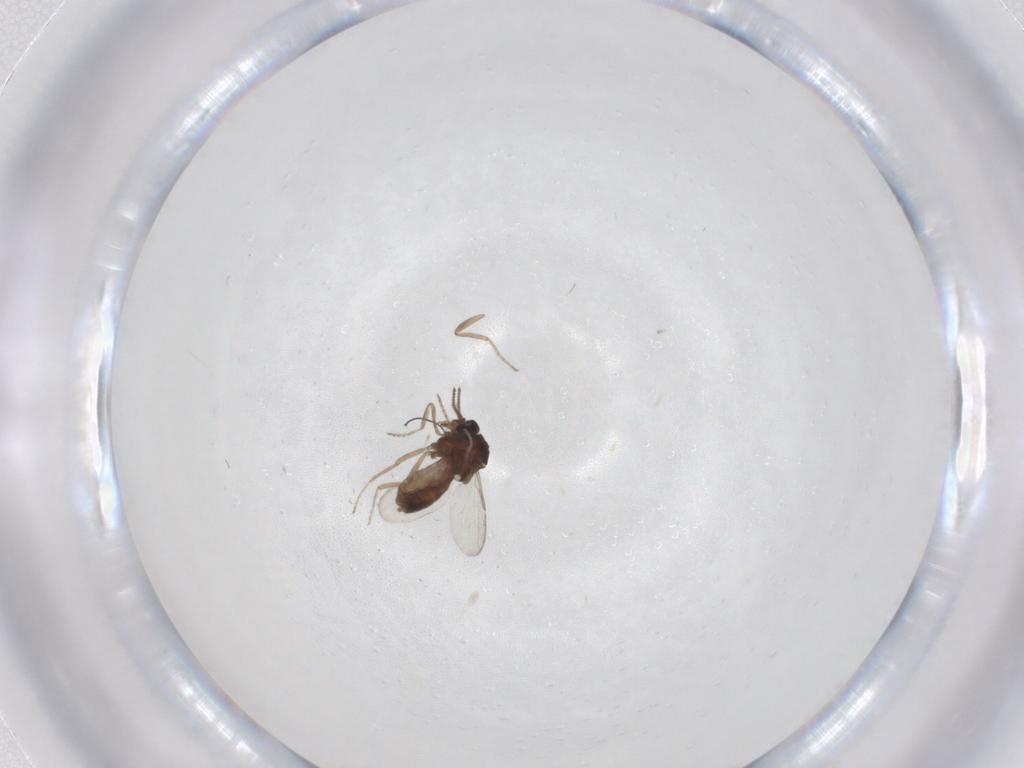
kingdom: Animalia
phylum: Arthropoda
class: Insecta
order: Diptera
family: Ceratopogonidae
